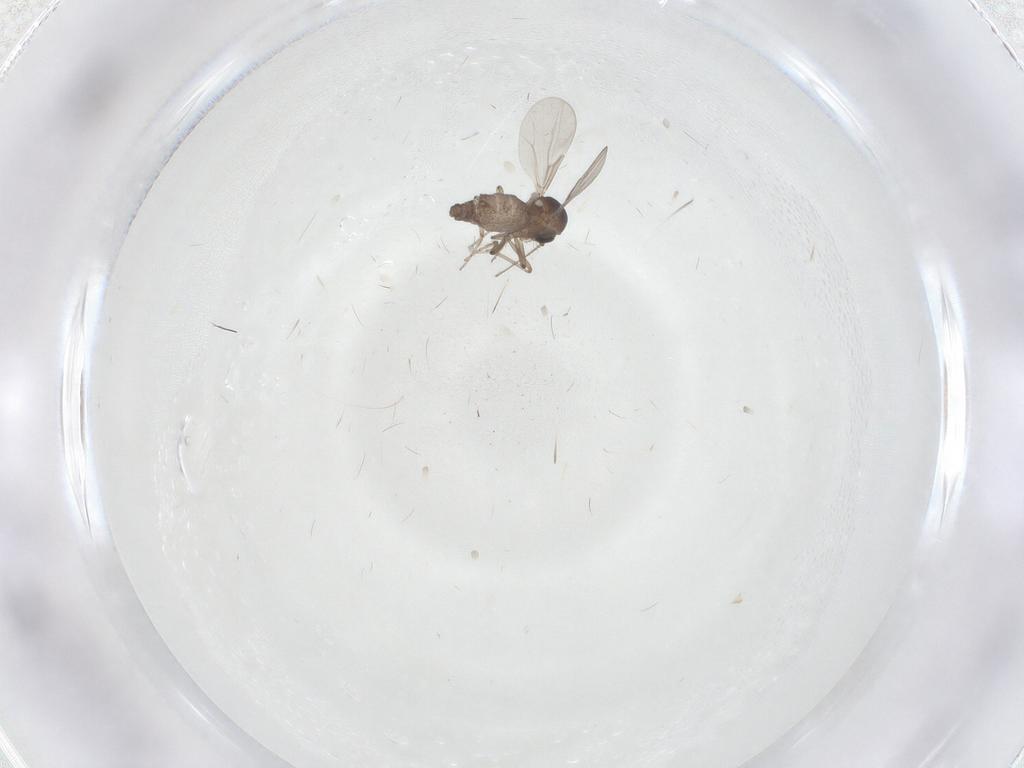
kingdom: Animalia
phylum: Arthropoda
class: Insecta
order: Diptera
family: Ceratopogonidae
